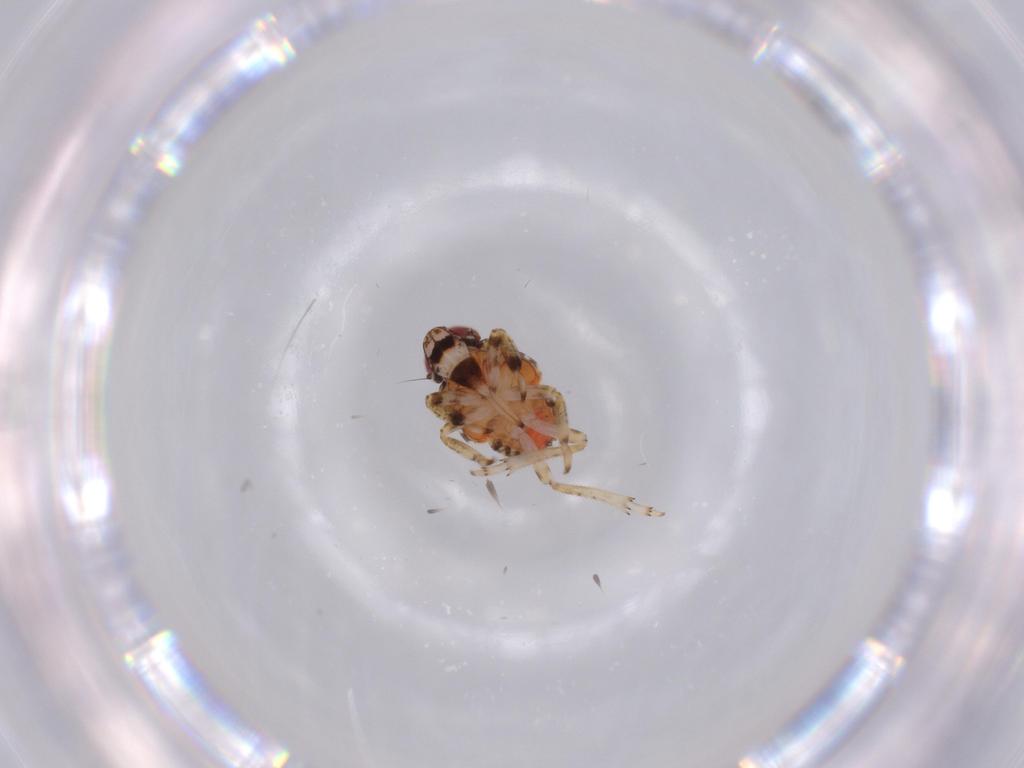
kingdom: Animalia
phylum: Arthropoda
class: Insecta
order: Hemiptera
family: Issidae
